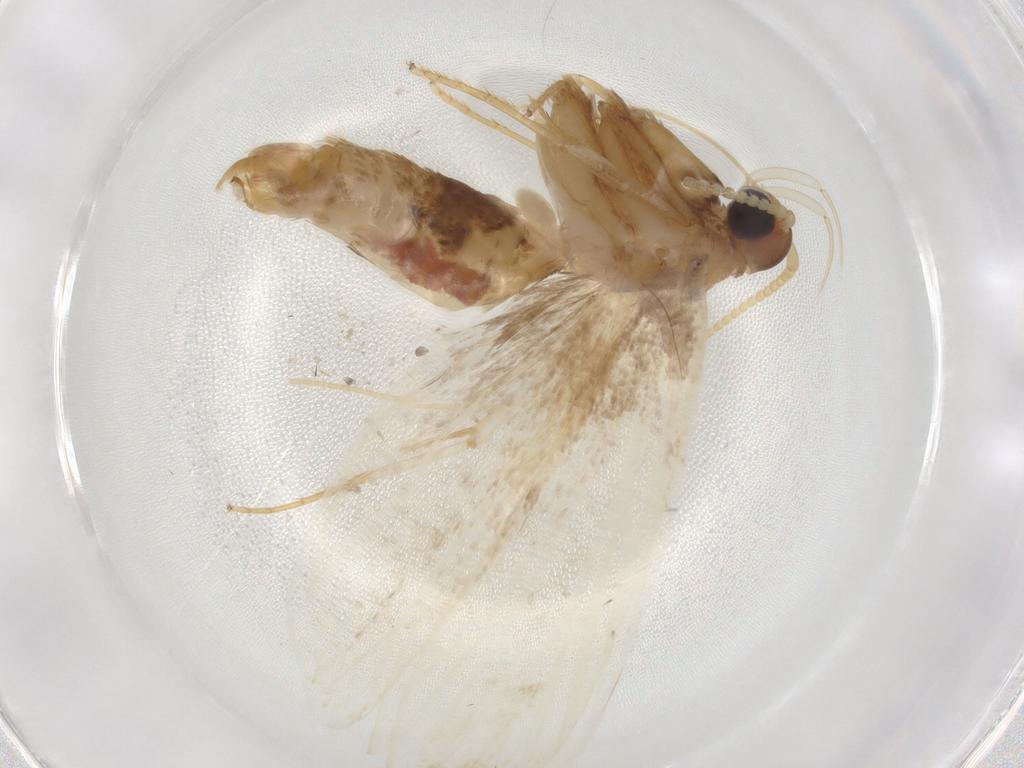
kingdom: Animalia
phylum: Arthropoda
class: Insecta
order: Lepidoptera
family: Lecithoceridae
